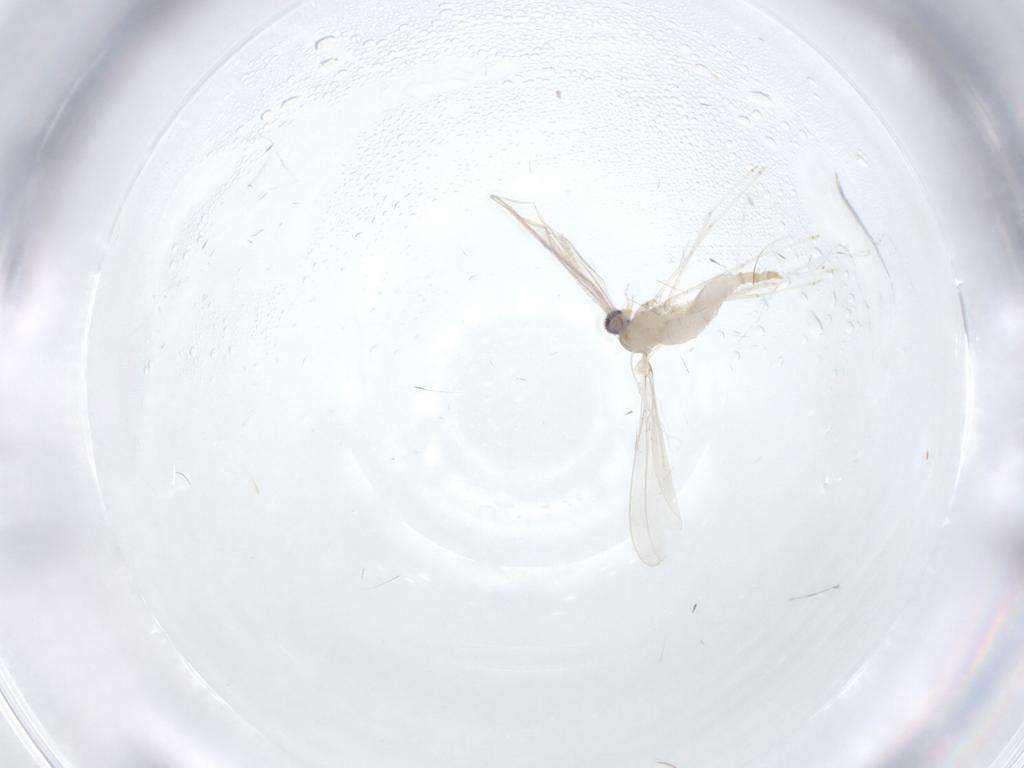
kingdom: Animalia
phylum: Arthropoda
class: Insecta
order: Diptera
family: Cecidomyiidae
